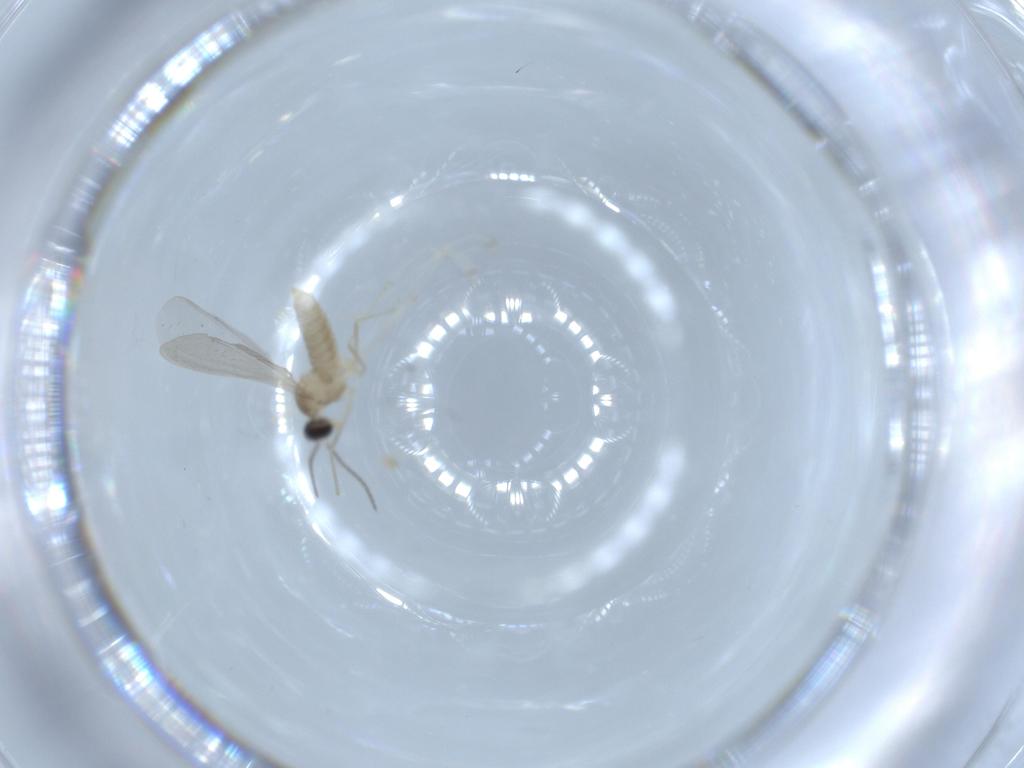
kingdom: Animalia
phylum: Arthropoda
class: Insecta
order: Diptera
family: Cecidomyiidae
